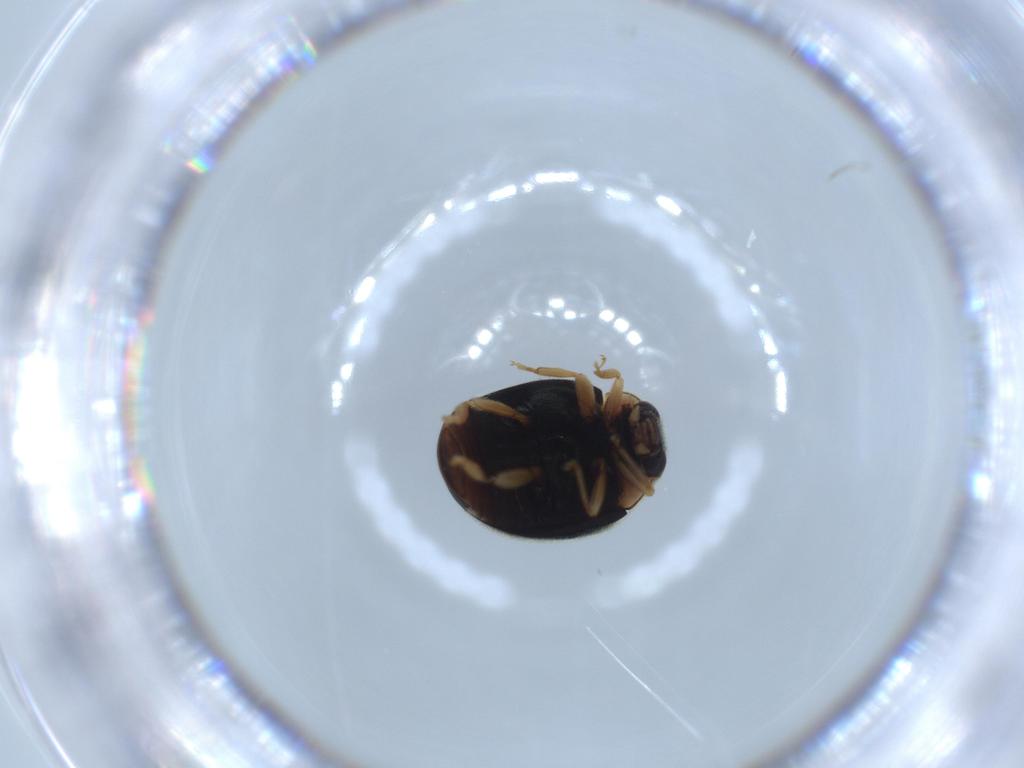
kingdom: Animalia
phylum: Arthropoda
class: Insecta
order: Coleoptera
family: Coccinellidae
